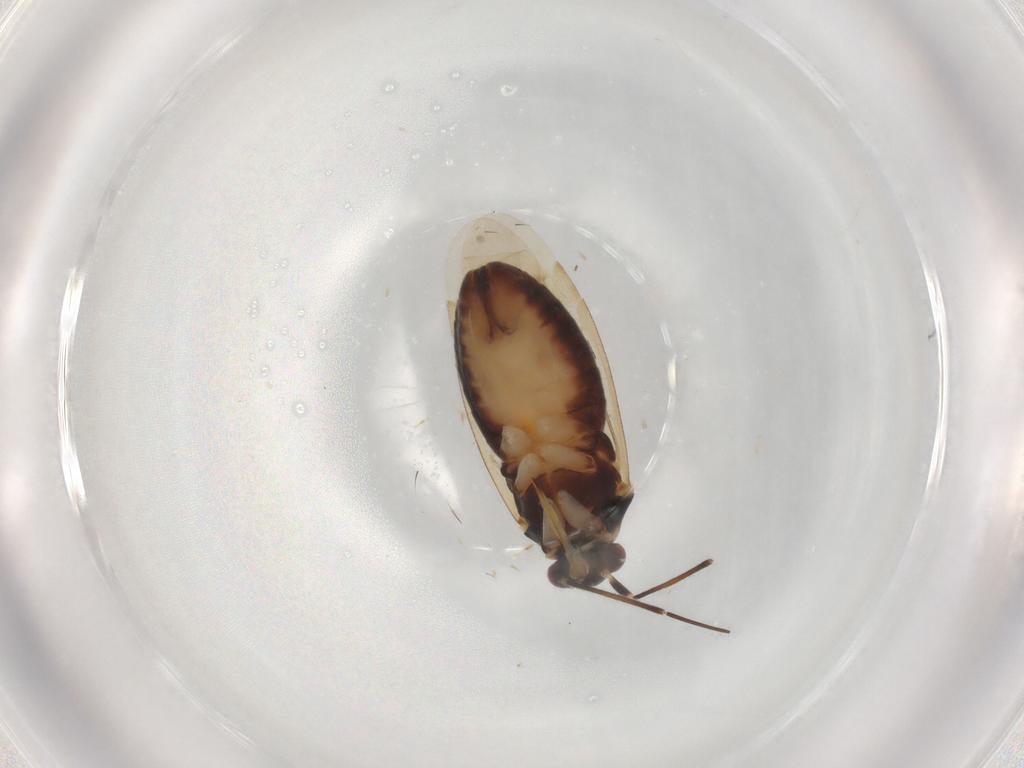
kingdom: Animalia
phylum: Arthropoda
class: Insecta
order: Hemiptera
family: Miridae
